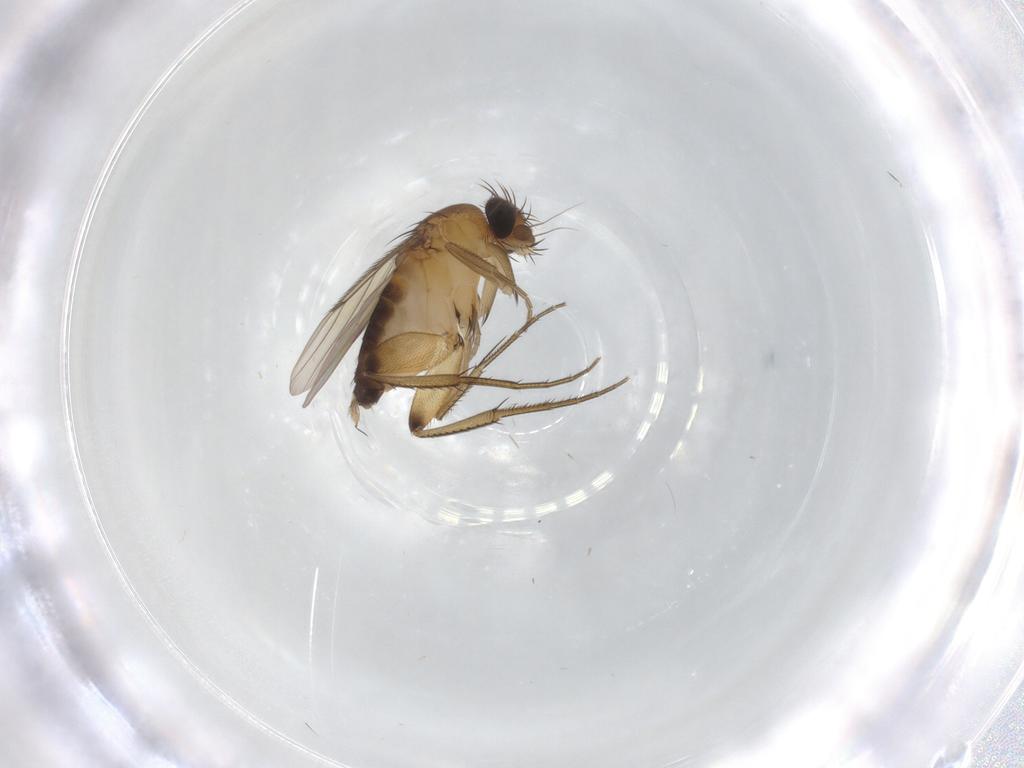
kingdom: Animalia
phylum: Arthropoda
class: Insecta
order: Diptera
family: Phoridae
